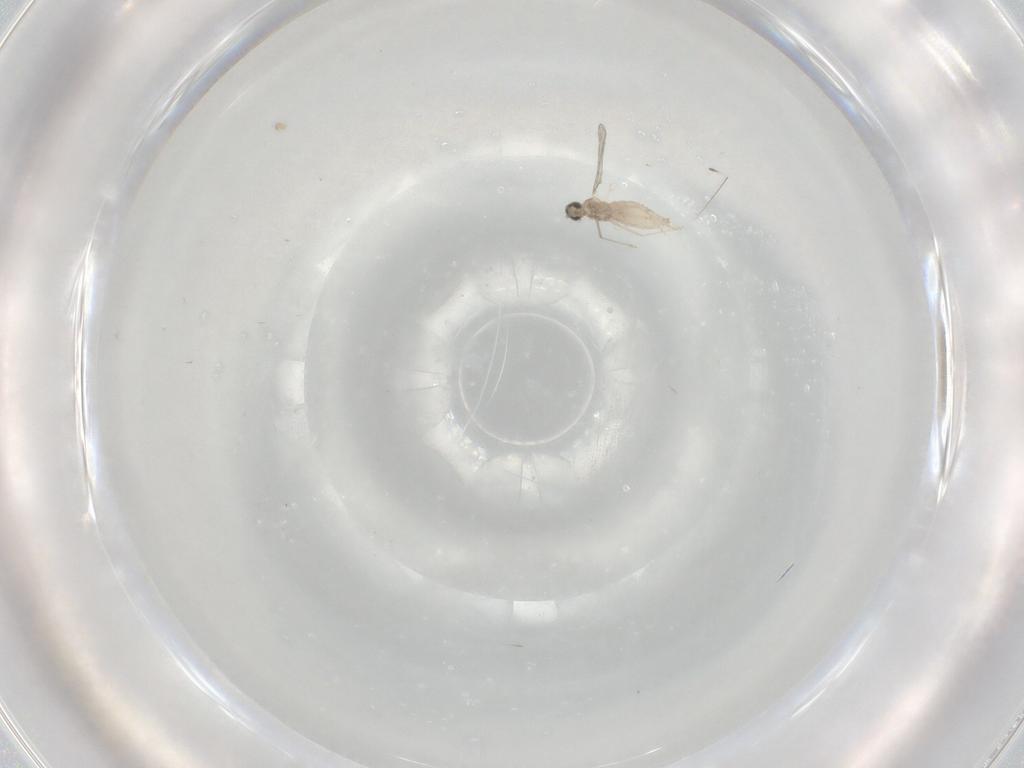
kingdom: Animalia
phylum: Arthropoda
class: Insecta
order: Diptera
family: Cecidomyiidae
